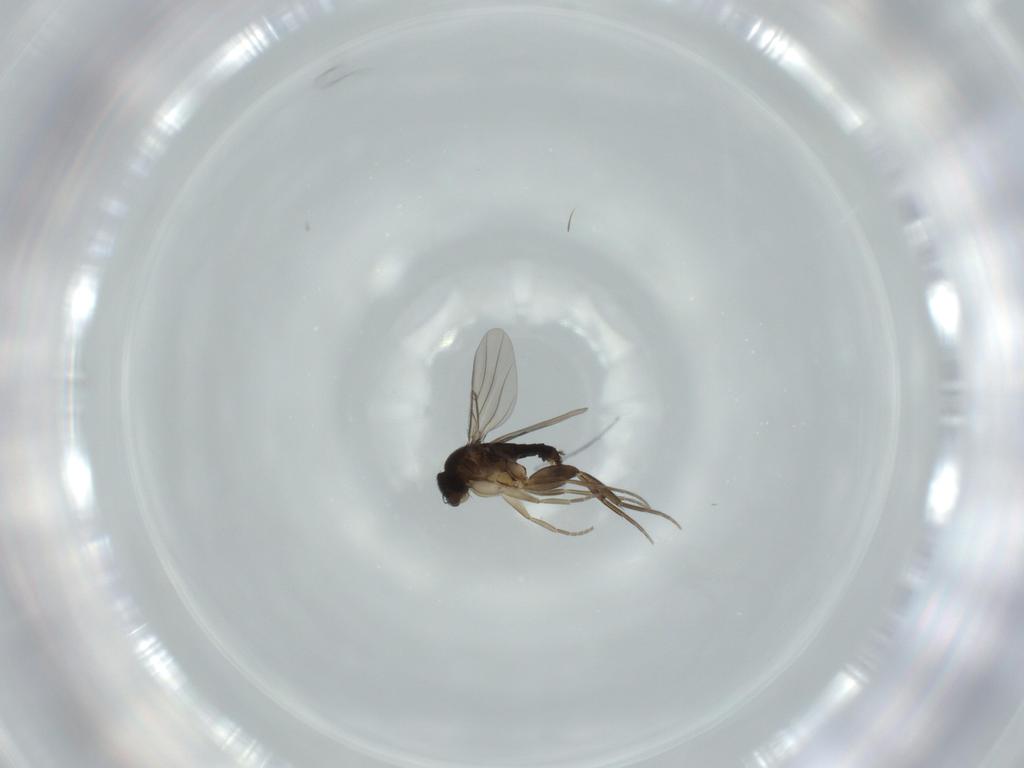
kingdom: Animalia
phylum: Arthropoda
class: Insecta
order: Diptera
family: Phoridae
